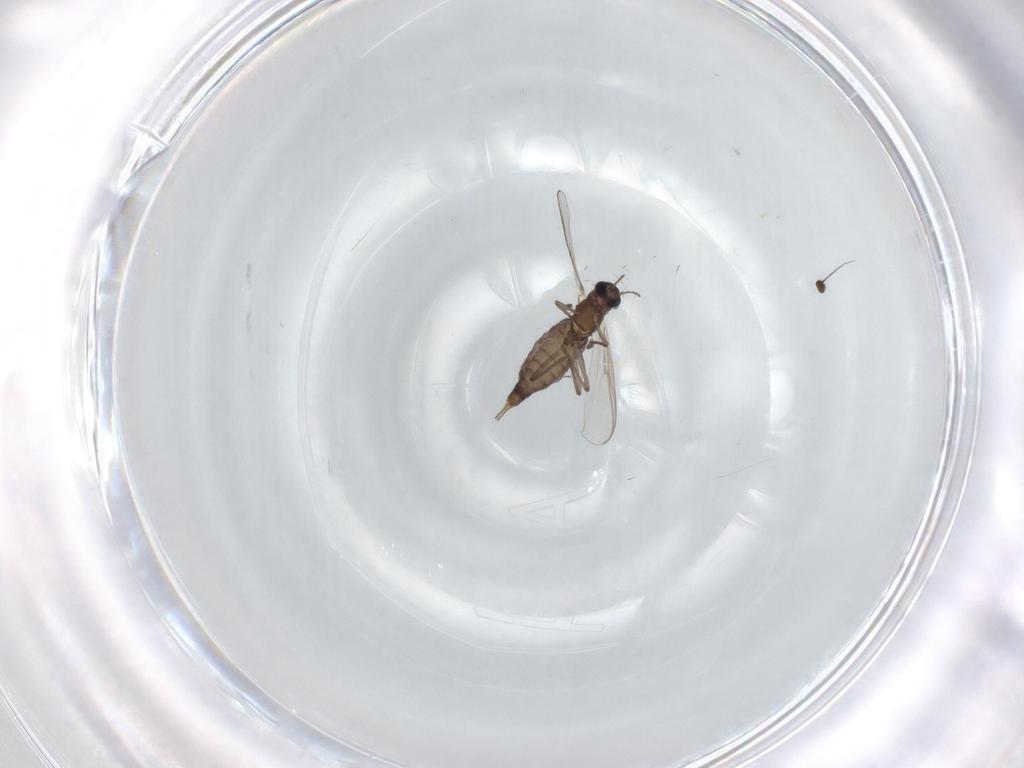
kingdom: Animalia
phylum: Arthropoda
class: Insecta
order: Diptera
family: Chironomidae
